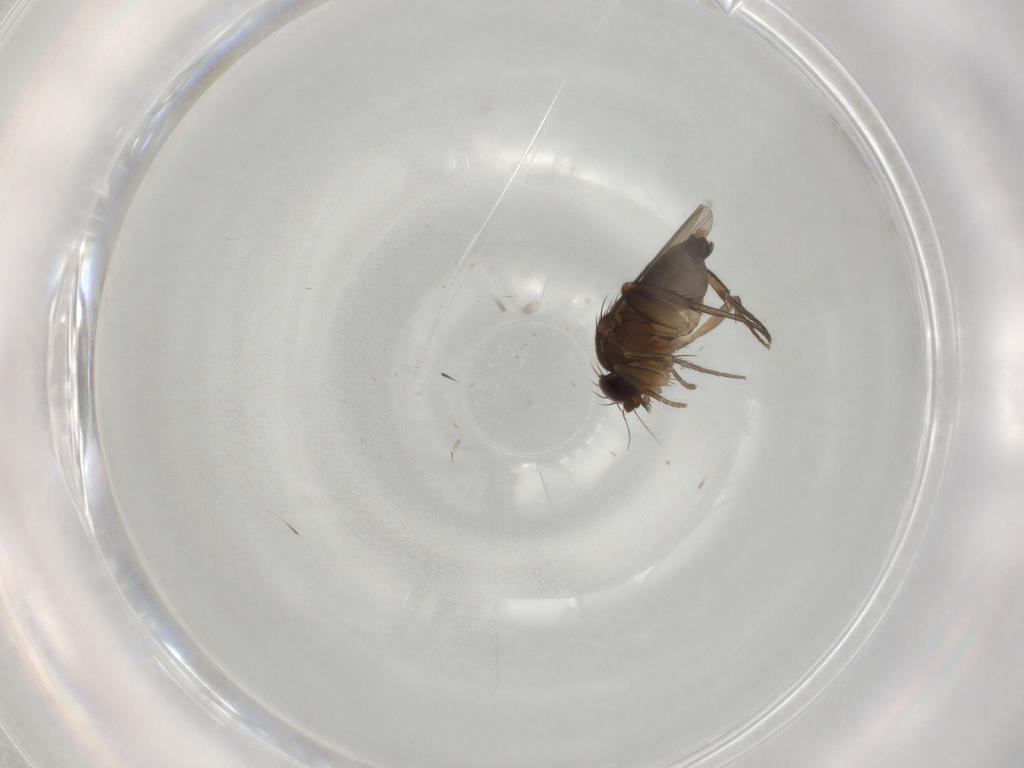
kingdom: Animalia
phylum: Arthropoda
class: Insecta
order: Diptera
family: Phoridae
